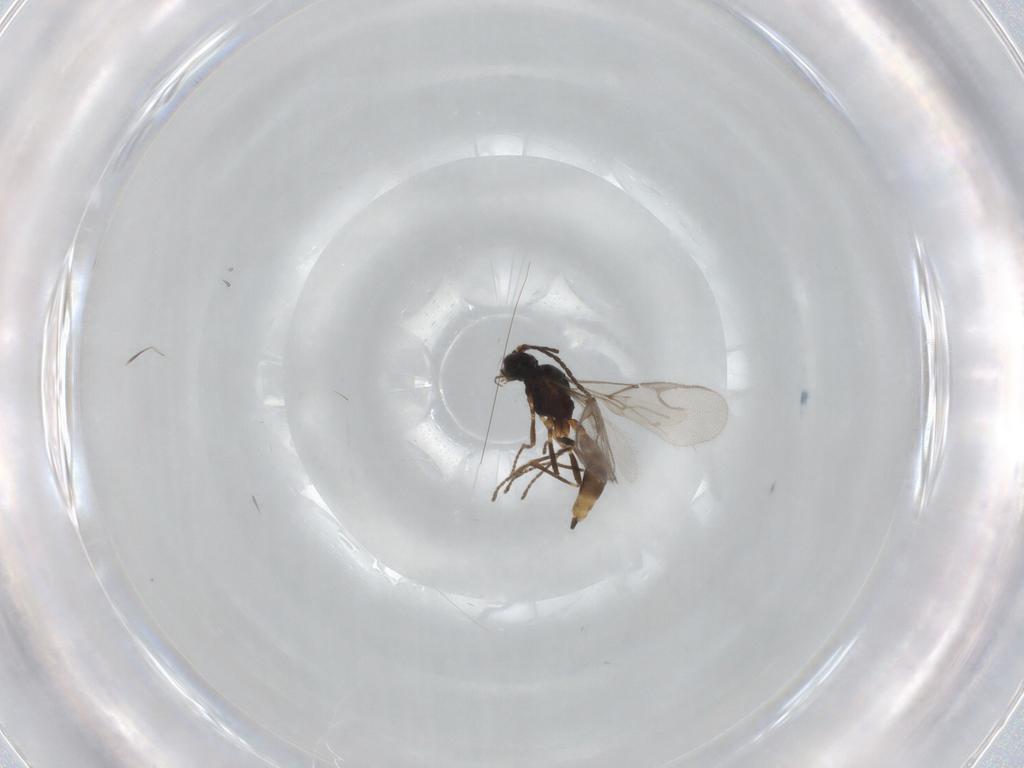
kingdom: Animalia
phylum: Arthropoda
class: Insecta
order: Hymenoptera
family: Braconidae
